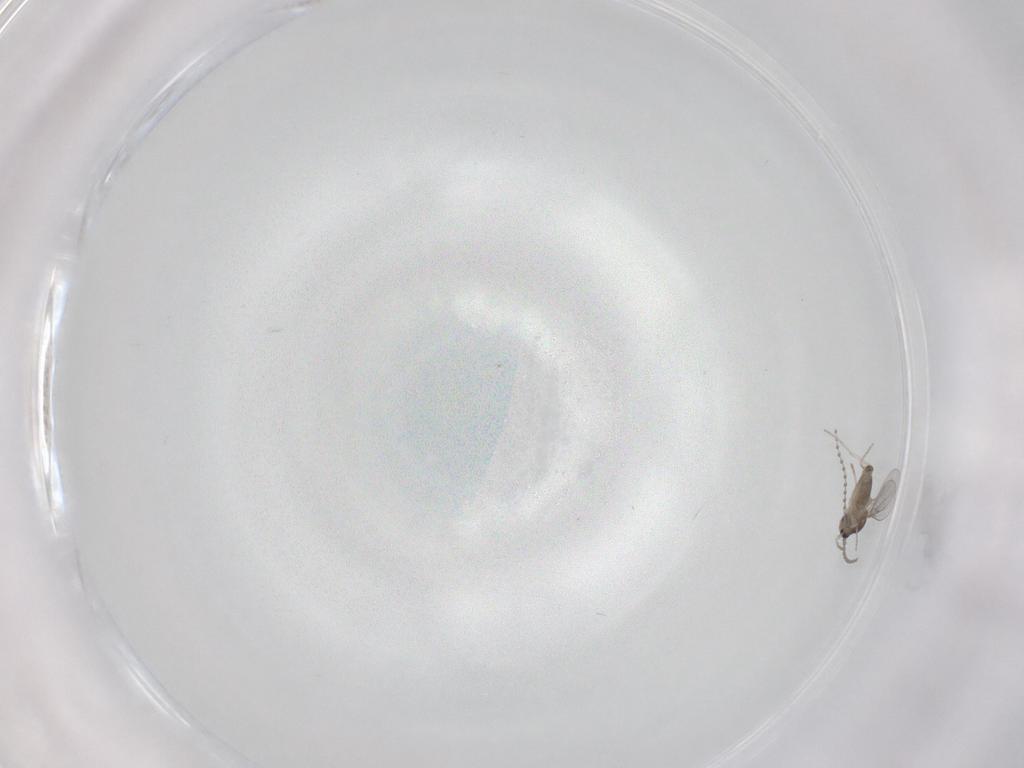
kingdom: Animalia
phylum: Arthropoda
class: Insecta
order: Diptera
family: Cecidomyiidae
